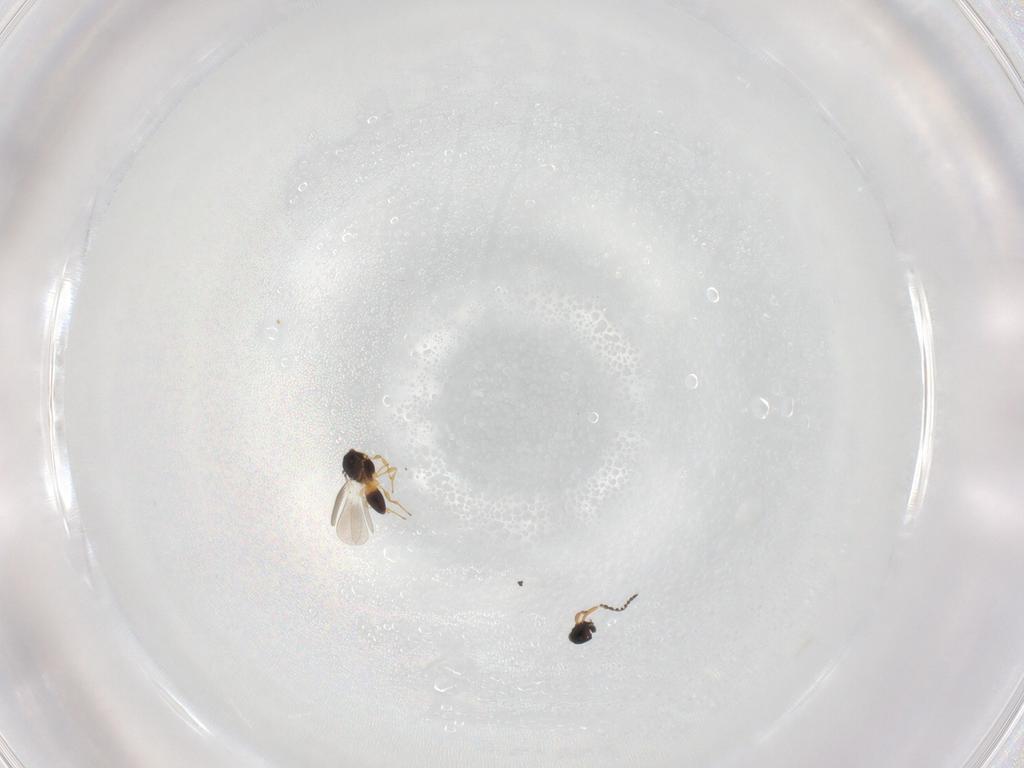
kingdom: Animalia
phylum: Arthropoda
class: Insecta
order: Hymenoptera
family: Platygastridae
